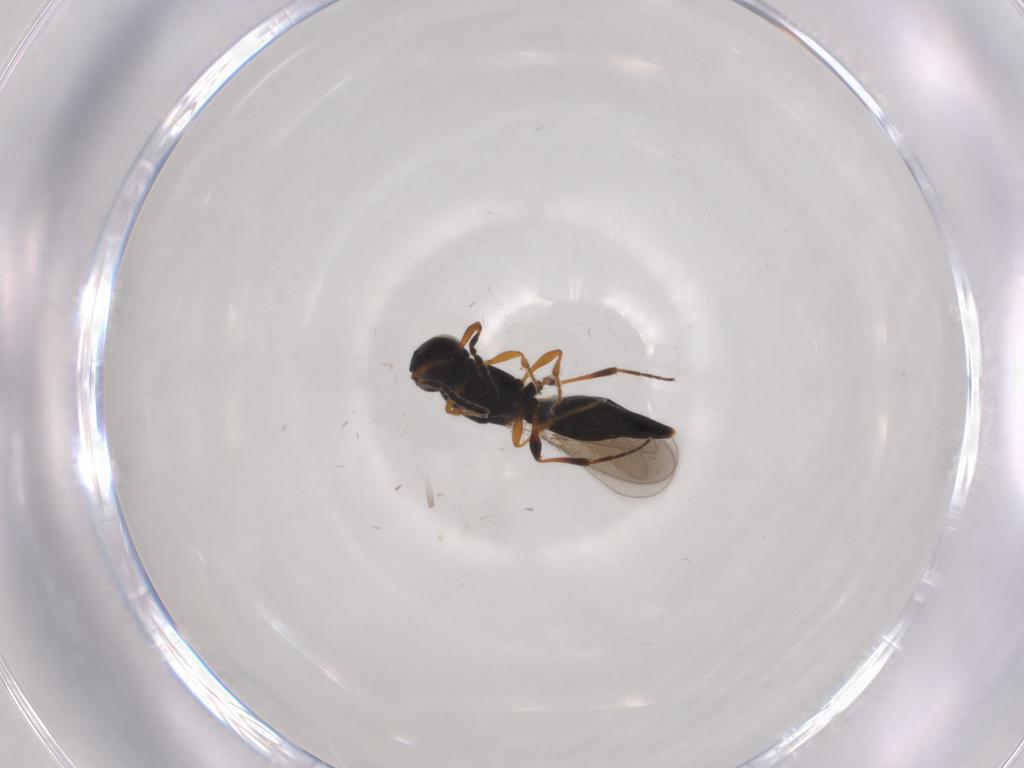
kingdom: Animalia
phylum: Arthropoda
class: Insecta
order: Hymenoptera
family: Platygastridae
